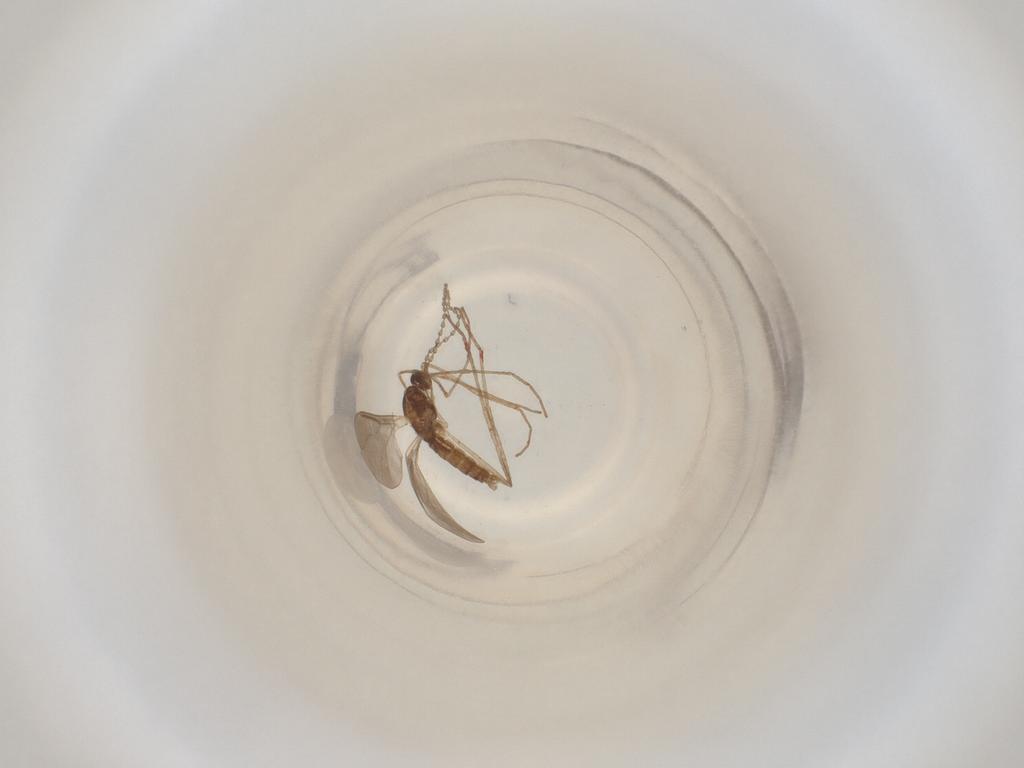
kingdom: Animalia
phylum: Arthropoda
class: Insecta
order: Diptera
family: Cecidomyiidae
